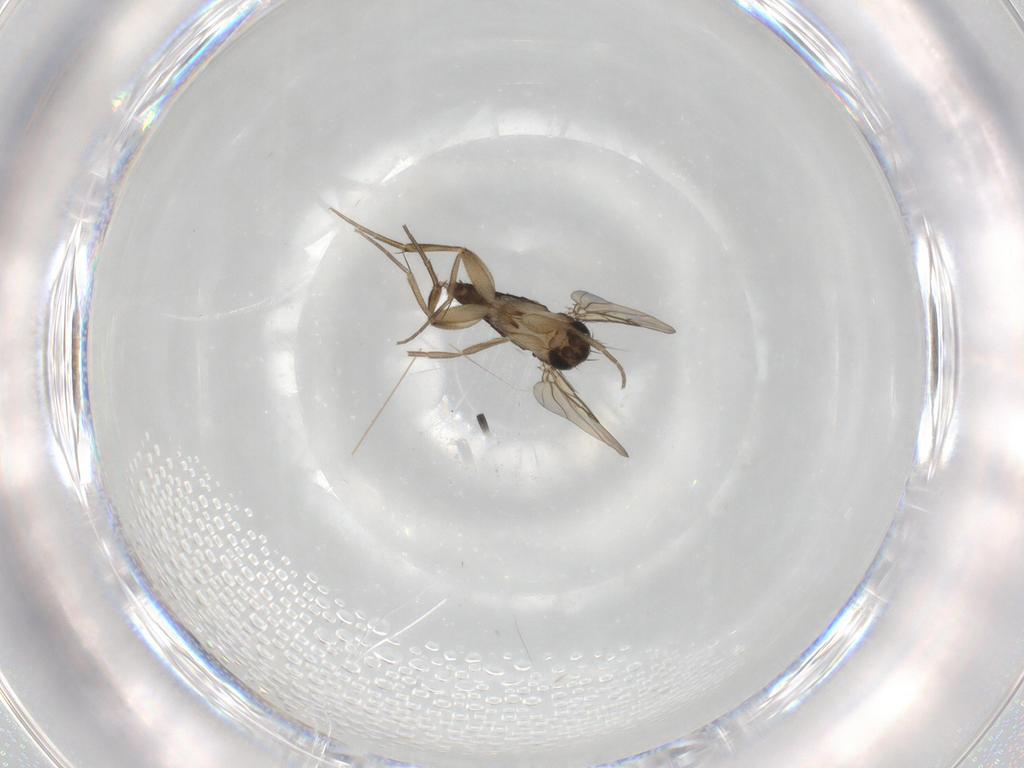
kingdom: Animalia
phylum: Arthropoda
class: Insecta
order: Diptera
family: Phoridae
